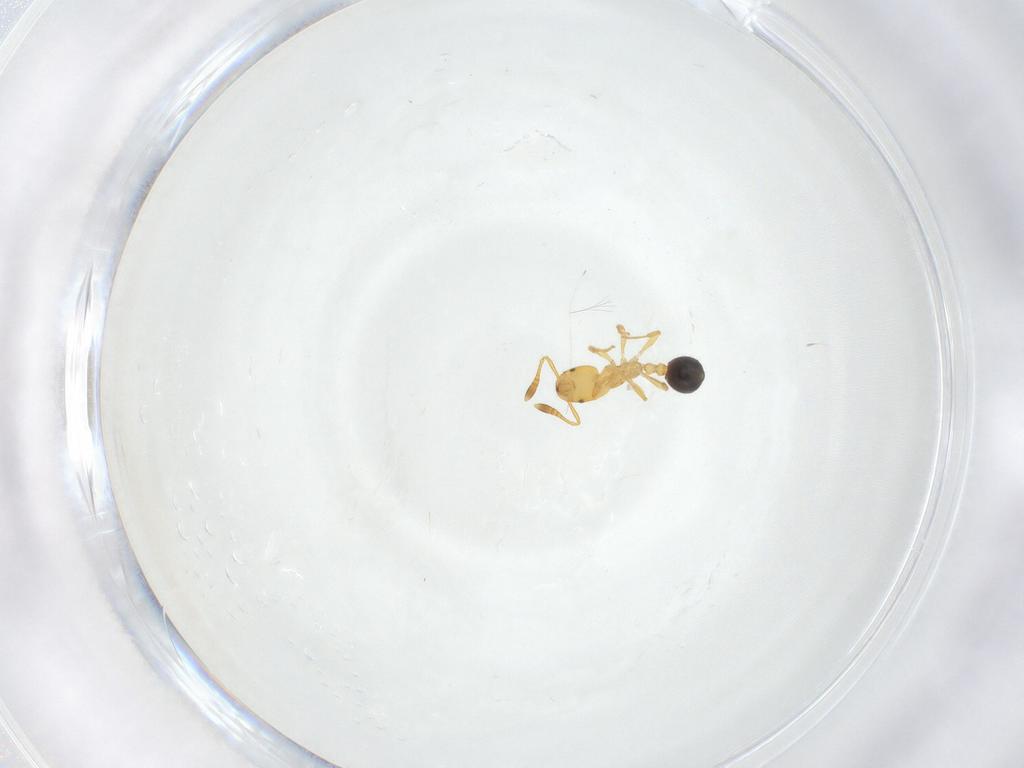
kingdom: Animalia
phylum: Arthropoda
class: Insecta
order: Hymenoptera
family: Formicidae
